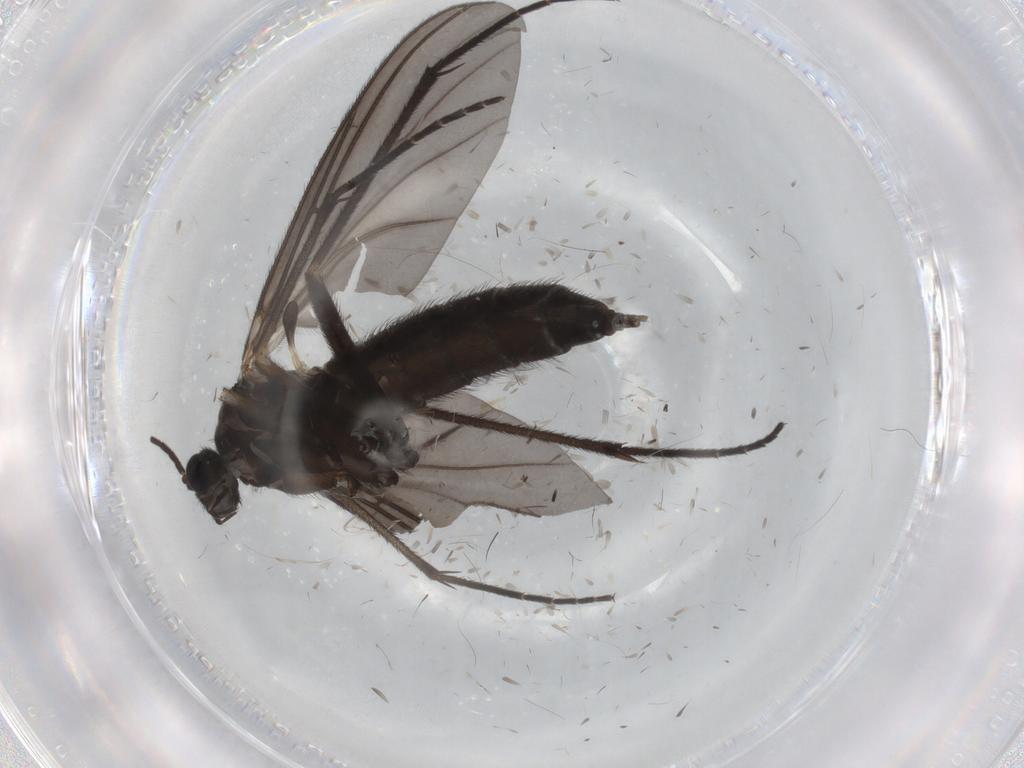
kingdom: Animalia
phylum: Arthropoda
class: Insecta
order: Diptera
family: Sciaridae
